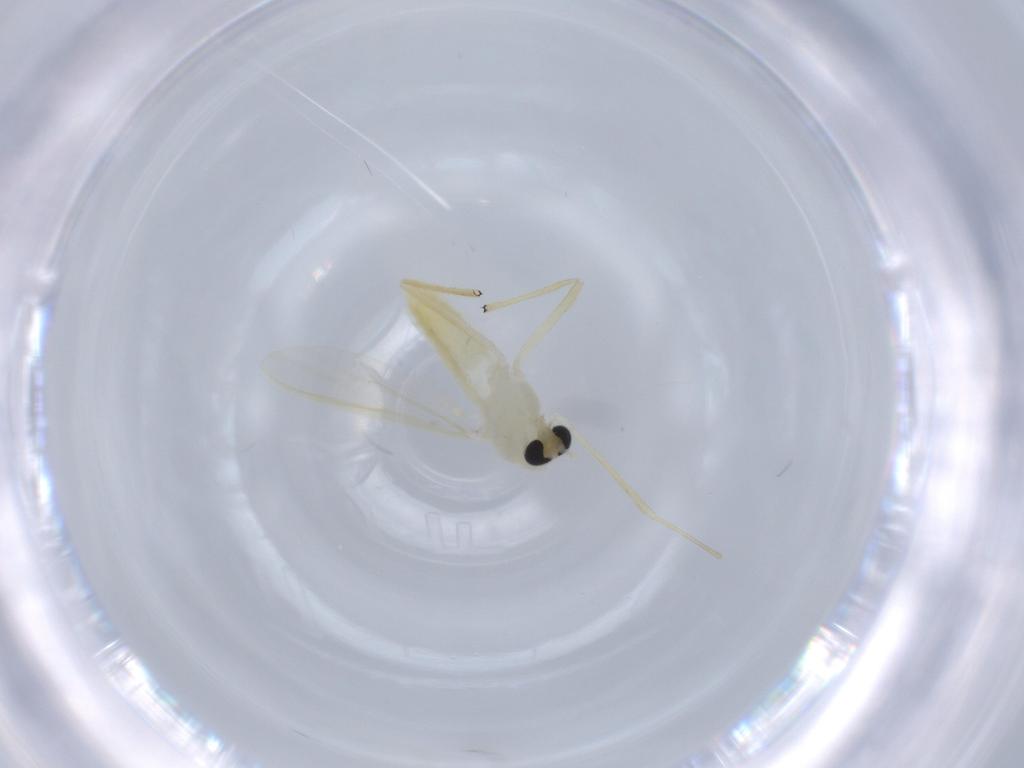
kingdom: Animalia
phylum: Arthropoda
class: Insecta
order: Diptera
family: Chironomidae
